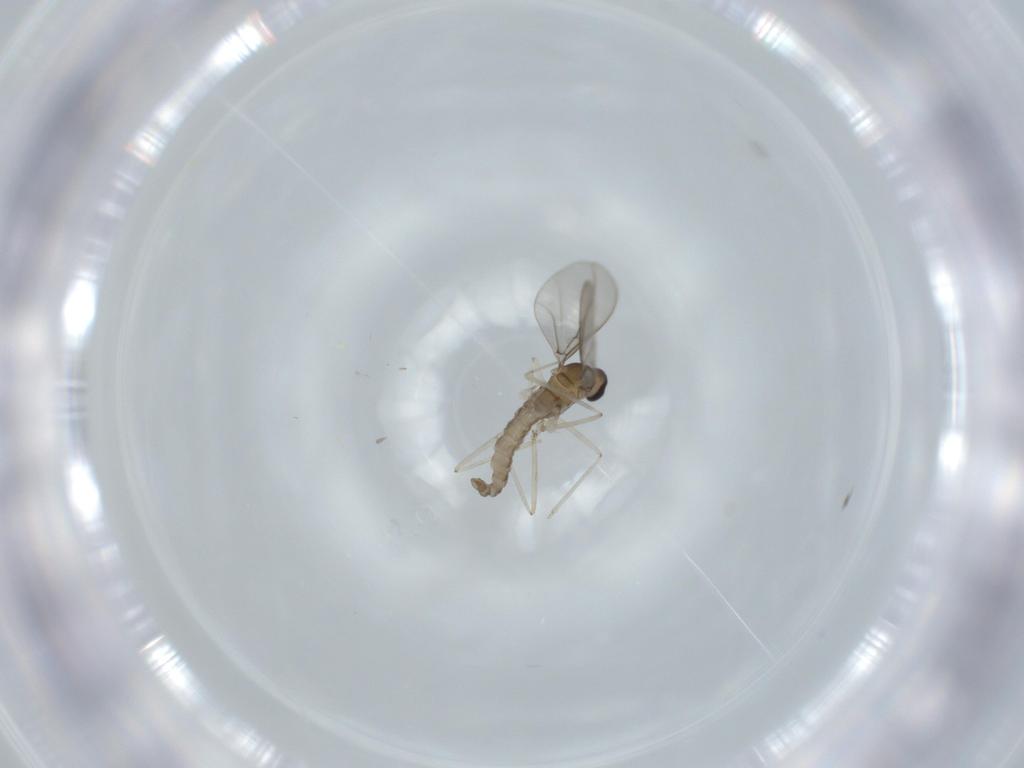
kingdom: Animalia
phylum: Arthropoda
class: Insecta
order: Diptera
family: Cecidomyiidae
